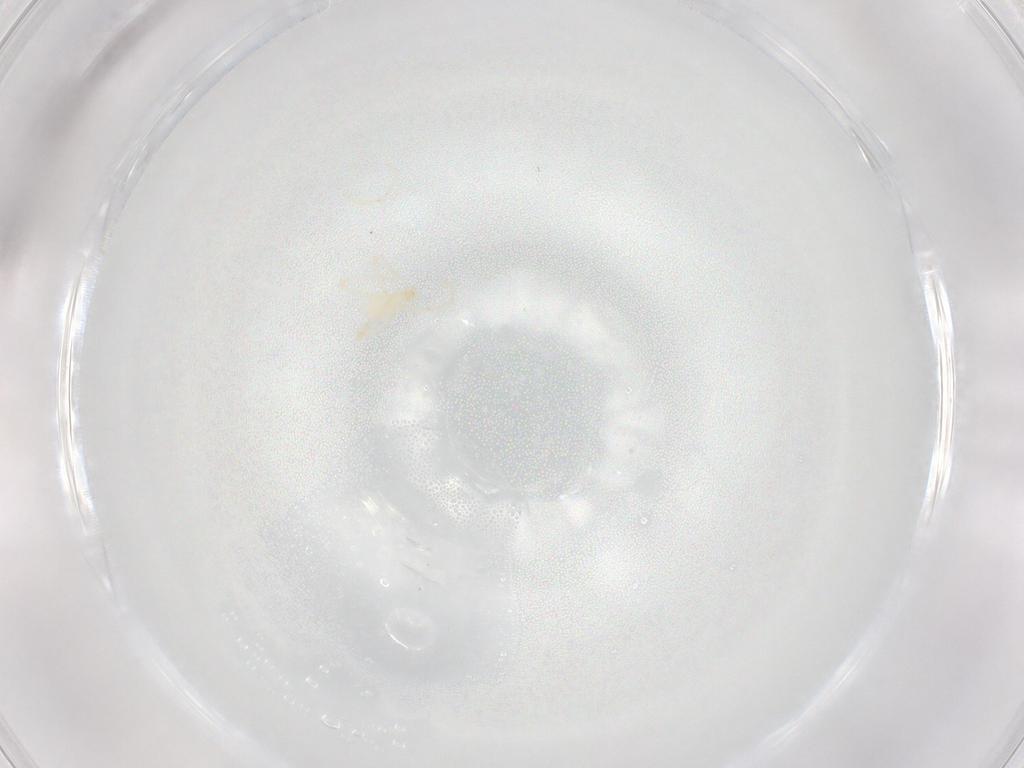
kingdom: Animalia
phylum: Arthropoda
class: Arachnida
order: Trombidiformes
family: Erythraeidae
